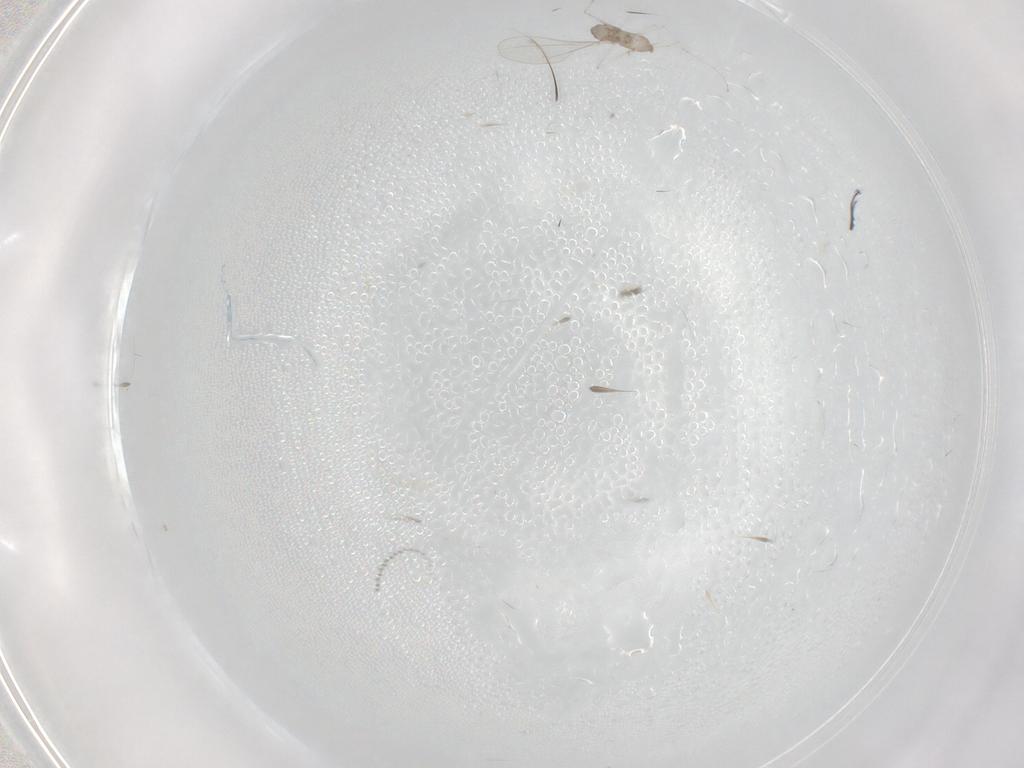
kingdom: Animalia
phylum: Arthropoda
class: Insecta
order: Diptera
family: Cecidomyiidae
